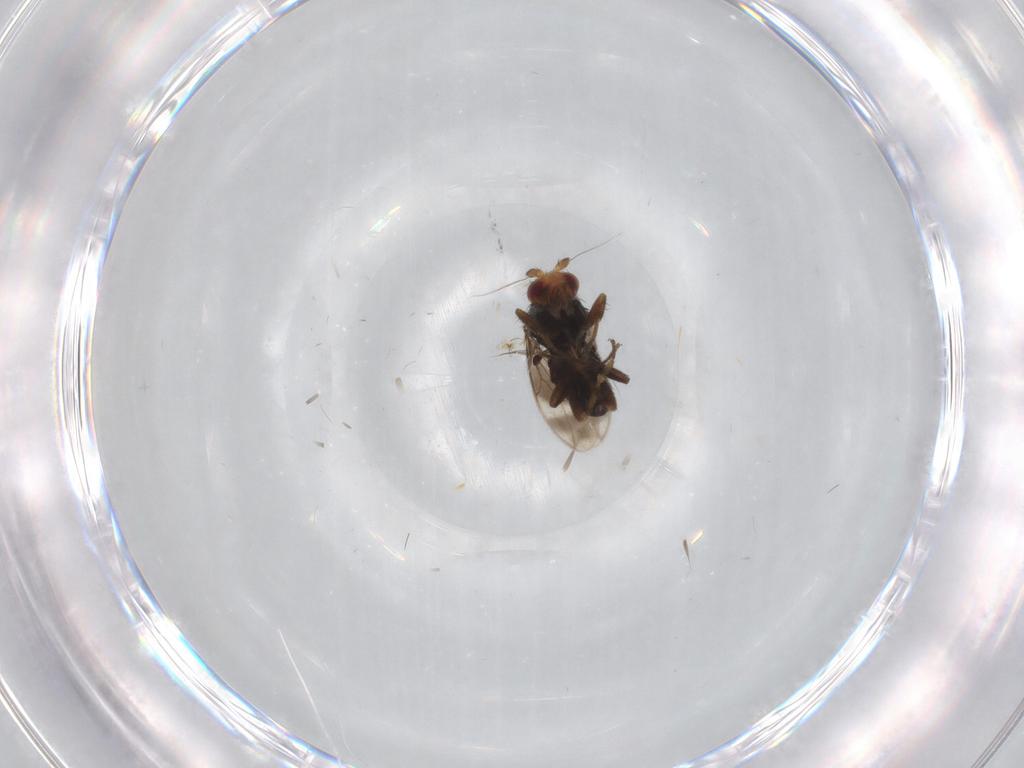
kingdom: Animalia
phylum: Arthropoda
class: Insecta
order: Diptera
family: Sphaeroceridae
